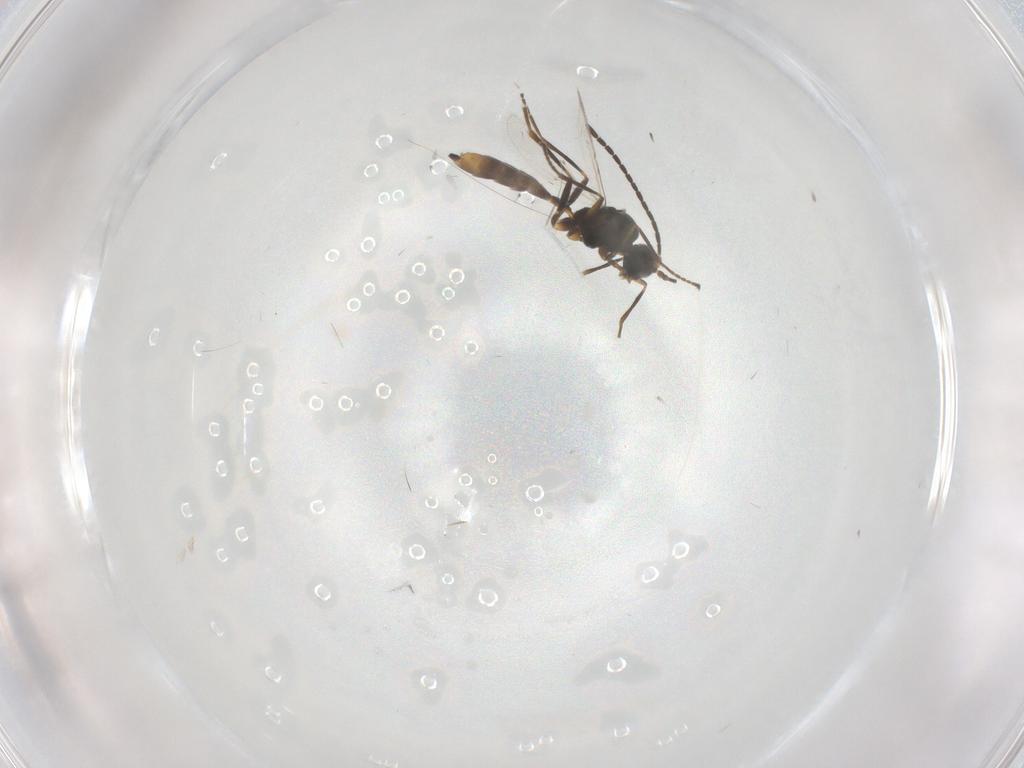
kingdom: Animalia
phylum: Arthropoda
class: Insecta
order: Hymenoptera
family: Braconidae
